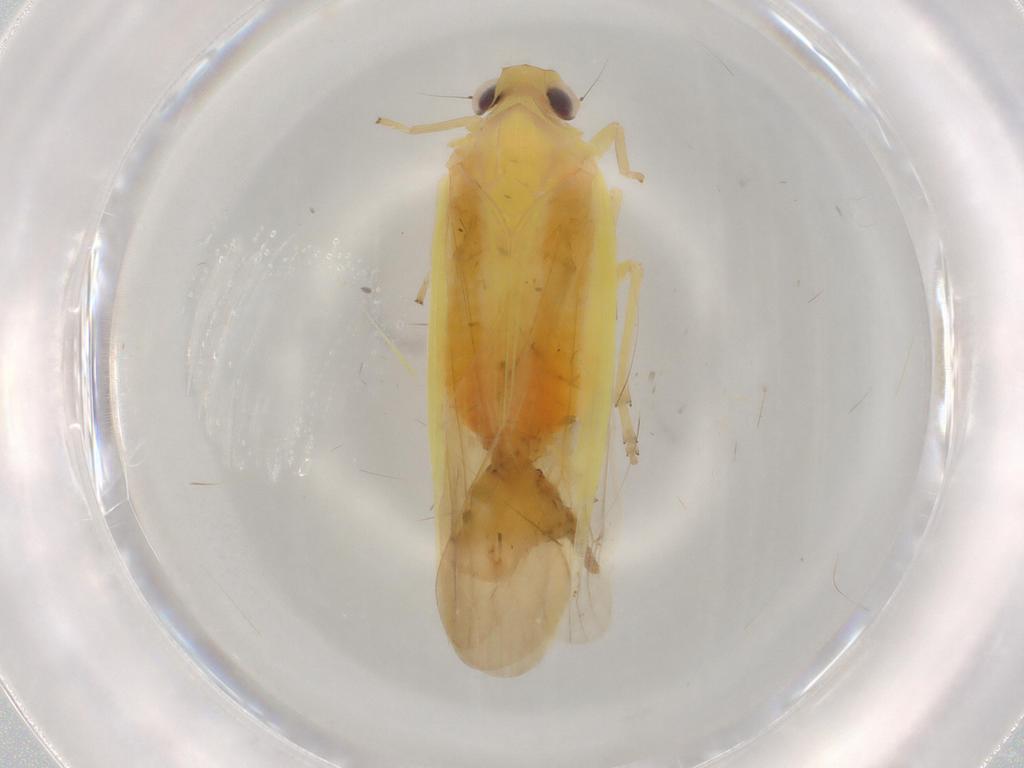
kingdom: Animalia
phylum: Arthropoda
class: Insecta
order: Hemiptera
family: Achilidae
